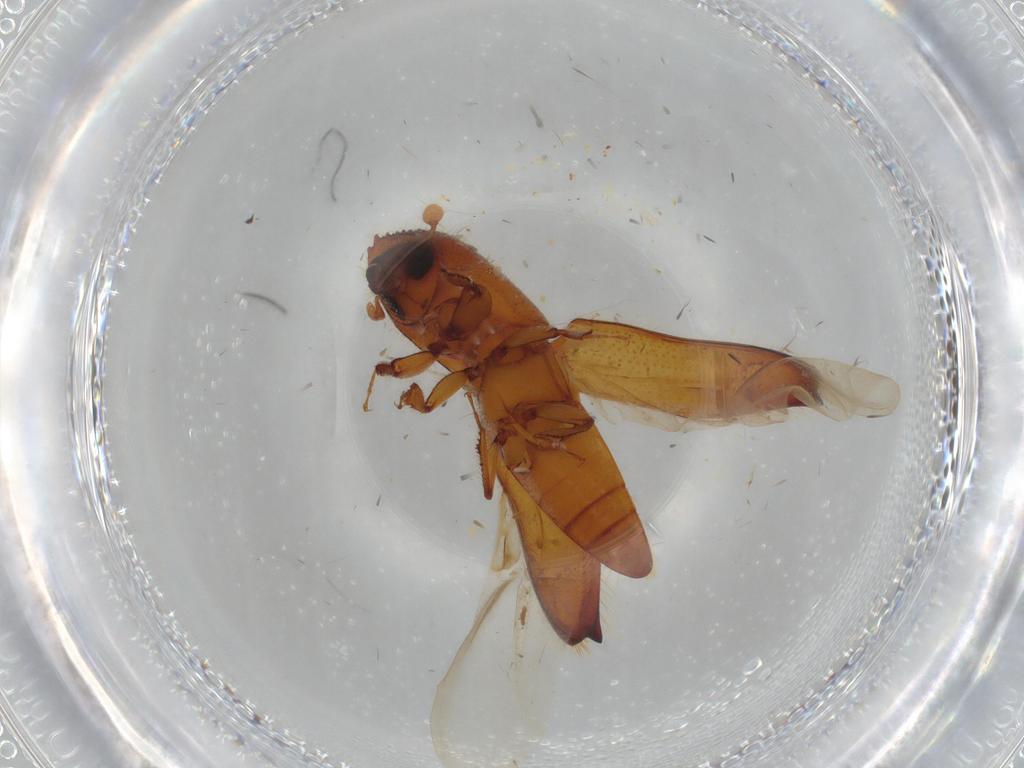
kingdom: Animalia
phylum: Arthropoda
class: Insecta
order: Coleoptera
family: Curculionidae
